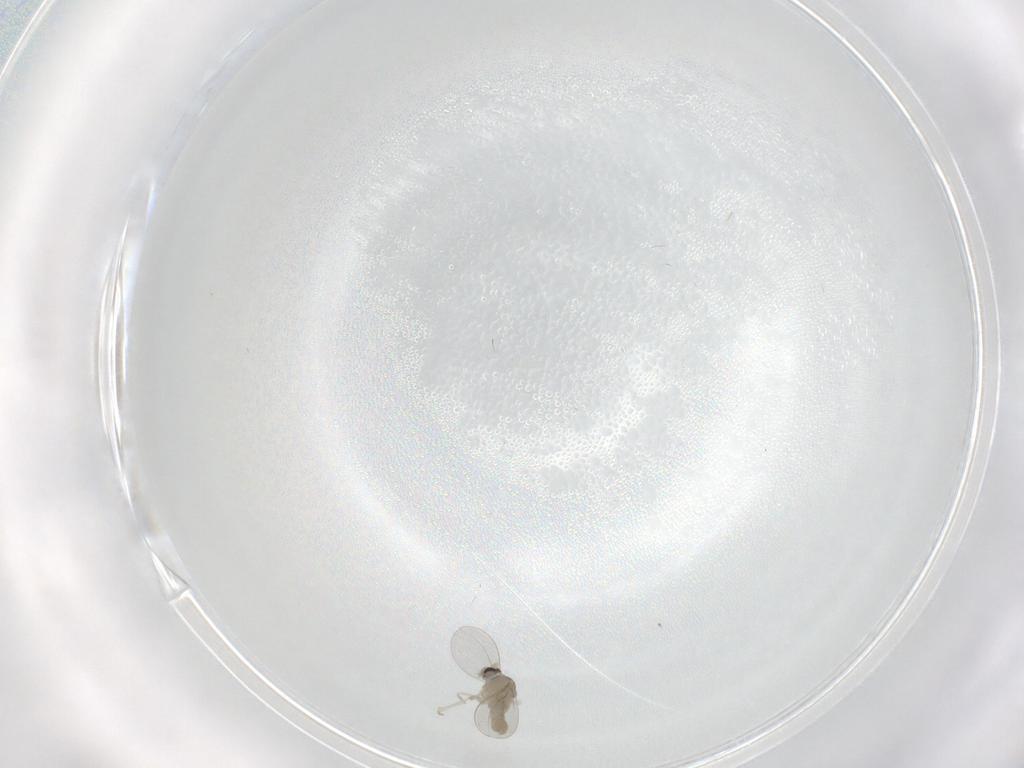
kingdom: Animalia
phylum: Arthropoda
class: Insecta
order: Diptera
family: Cecidomyiidae
